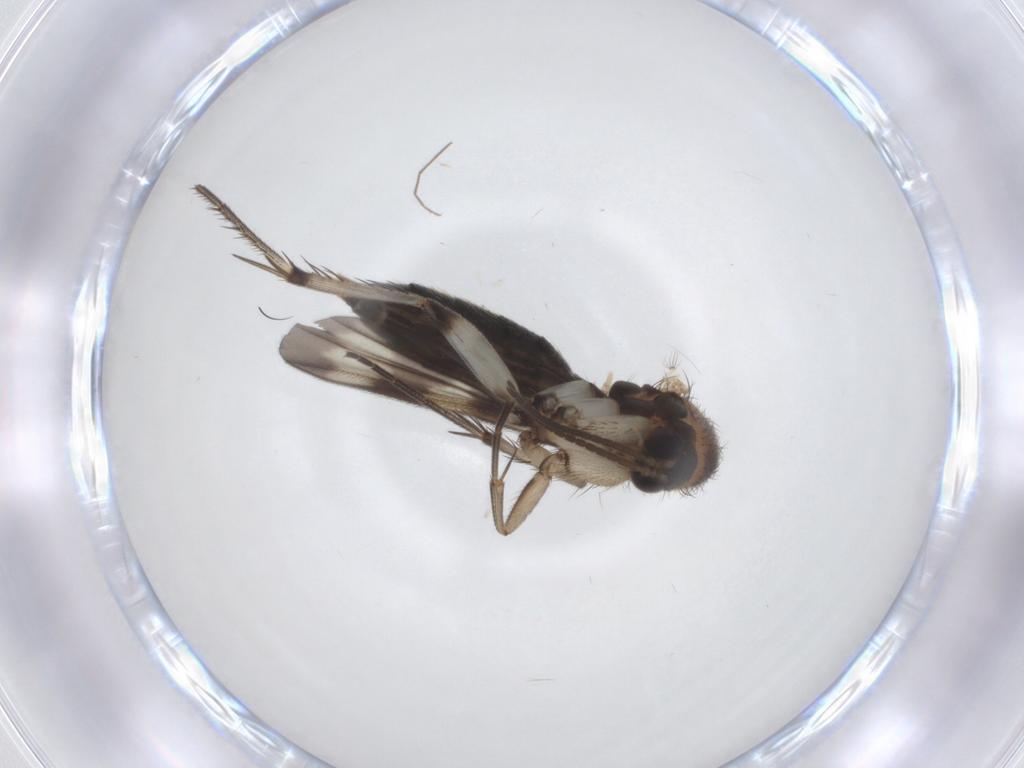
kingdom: Animalia
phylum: Arthropoda
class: Insecta
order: Diptera
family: Mycetophilidae
